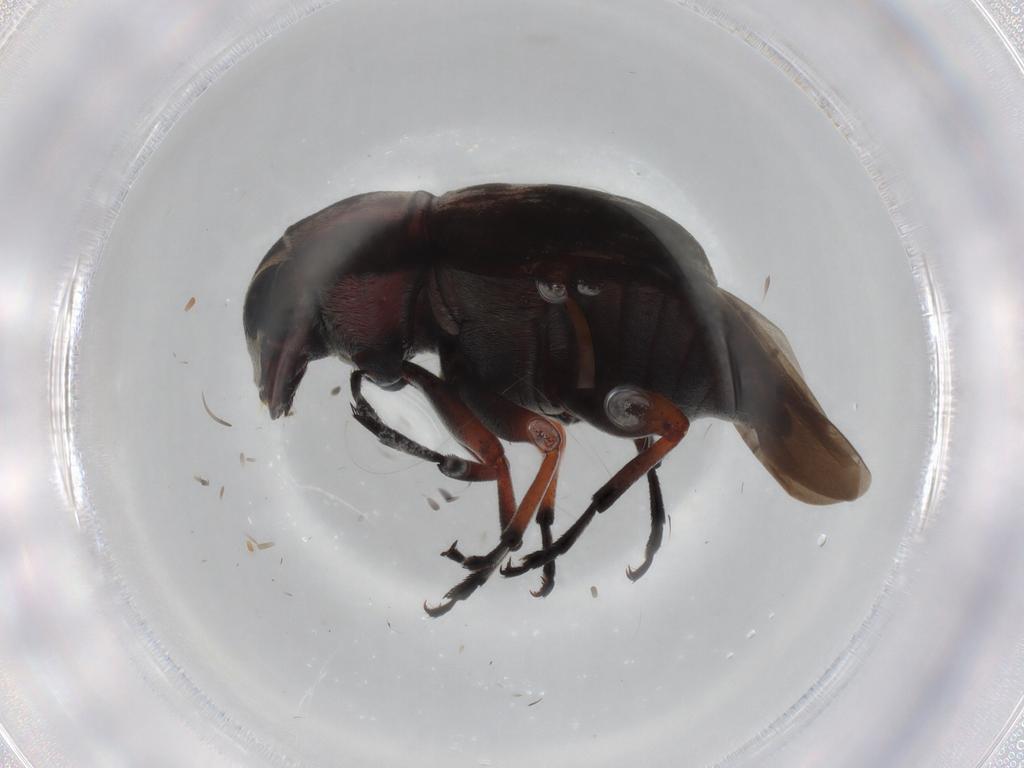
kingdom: Animalia
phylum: Arthropoda
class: Insecta
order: Coleoptera
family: Anthribidae
